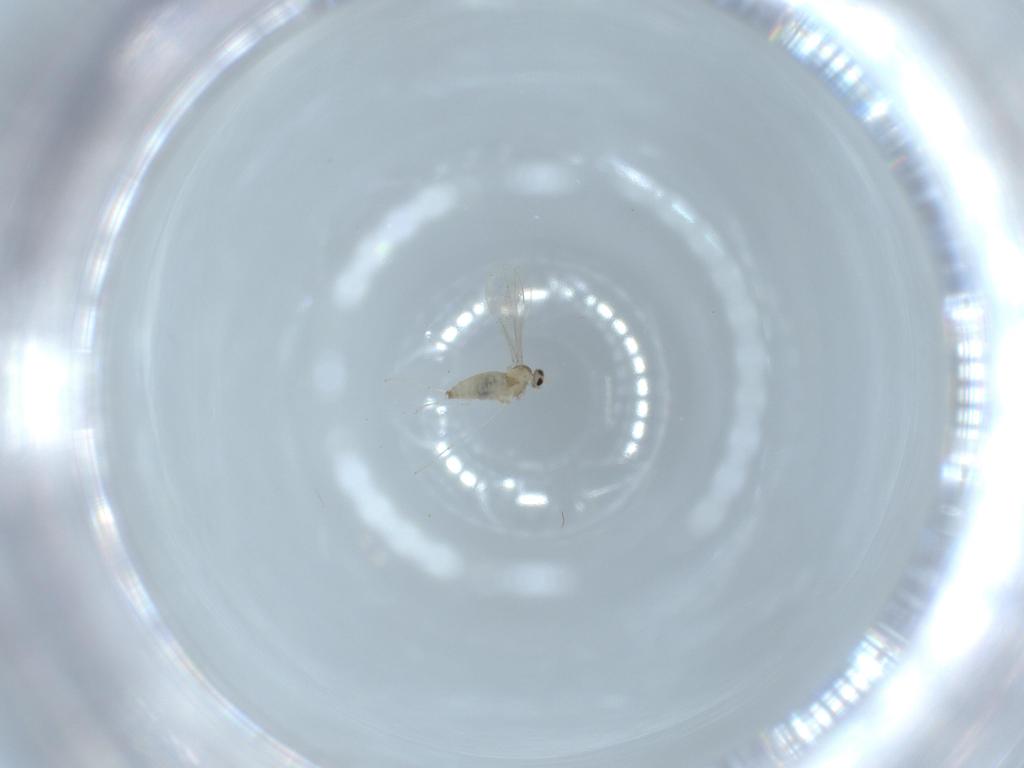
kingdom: Animalia
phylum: Arthropoda
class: Insecta
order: Diptera
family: Cecidomyiidae
